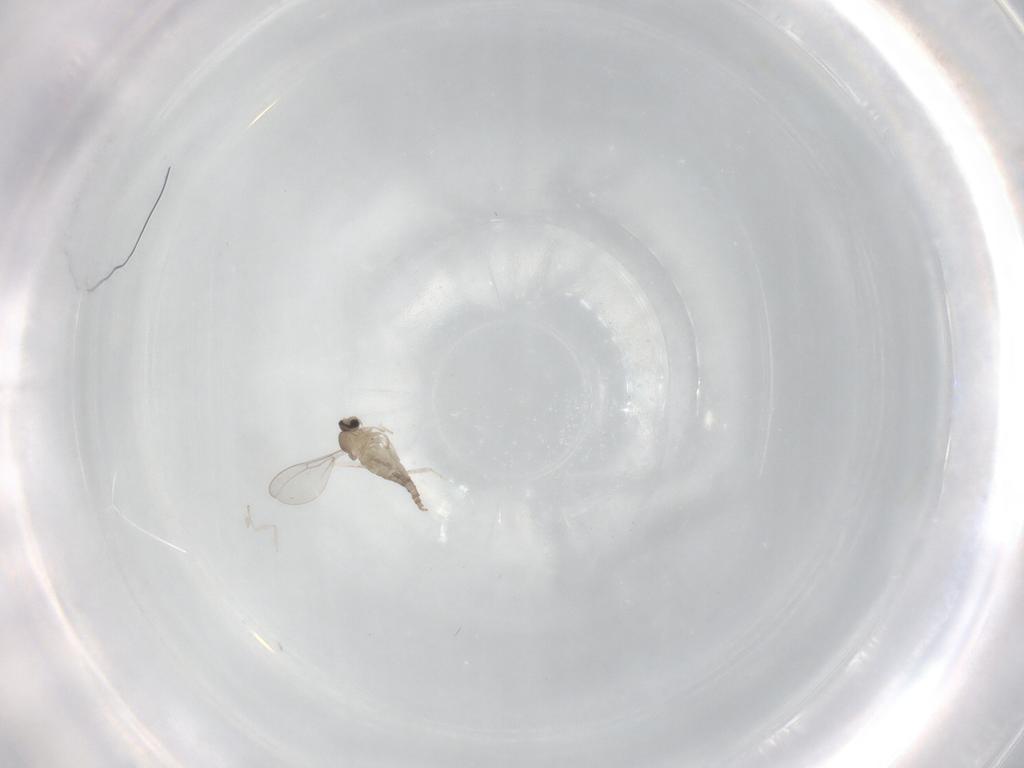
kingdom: Animalia
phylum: Arthropoda
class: Insecta
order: Diptera
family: Cecidomyiidae
